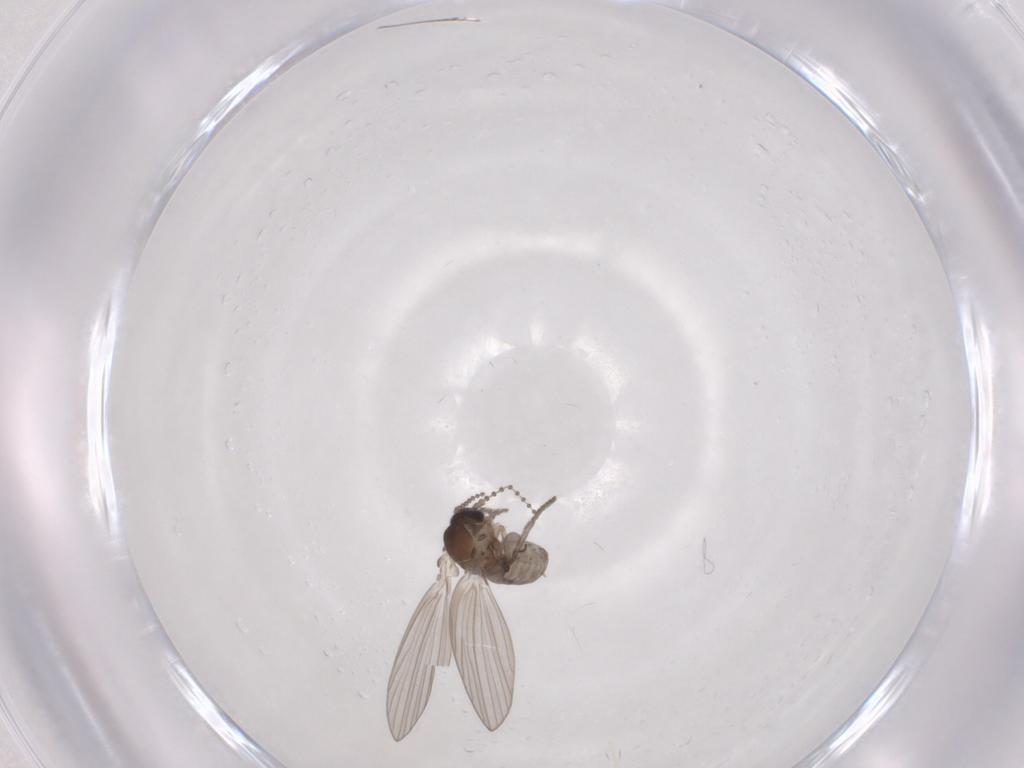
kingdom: Animalia
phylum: Arthropoda
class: Insecta
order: Diptera
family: Psychodidae
